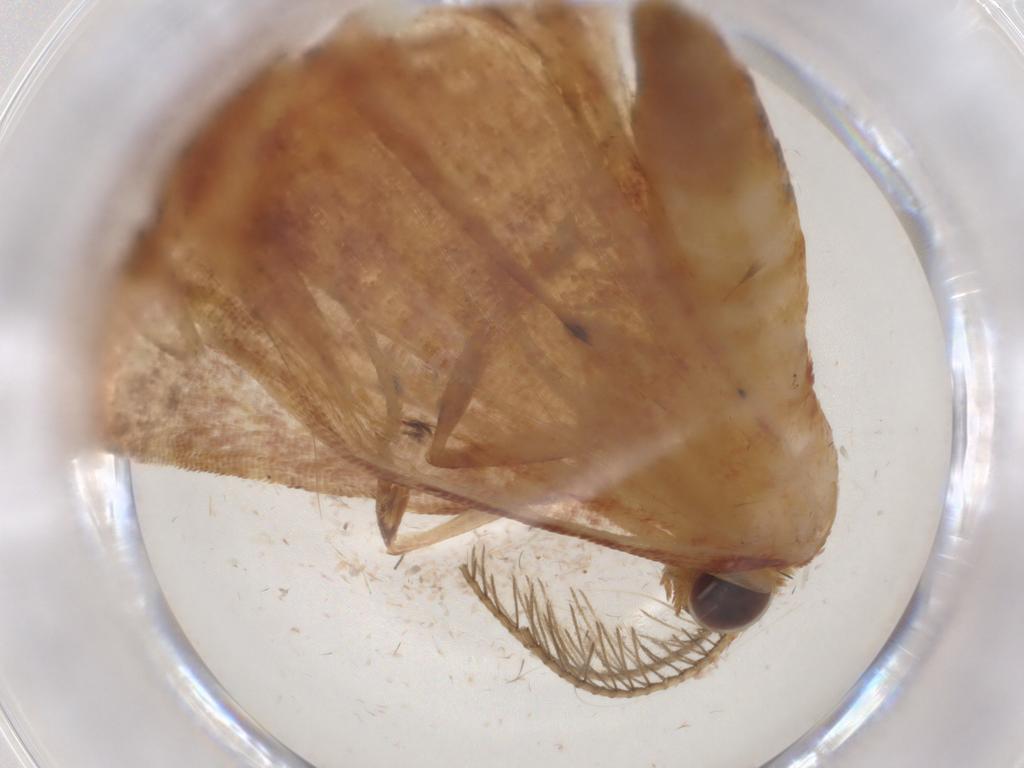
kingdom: Animalia
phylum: Arthropoda
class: Insecta
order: Lepidoptera
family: Geometridae
